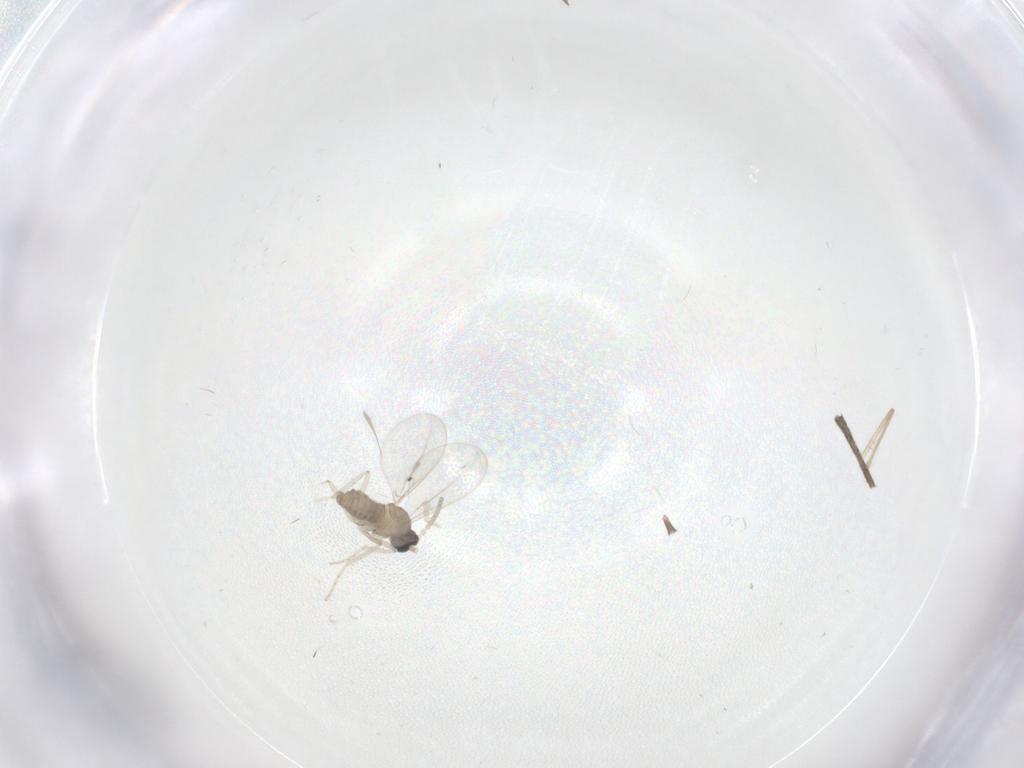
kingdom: Animalia
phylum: Arthropoda
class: Insecta
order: Diptera
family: Cecidomyiidae
